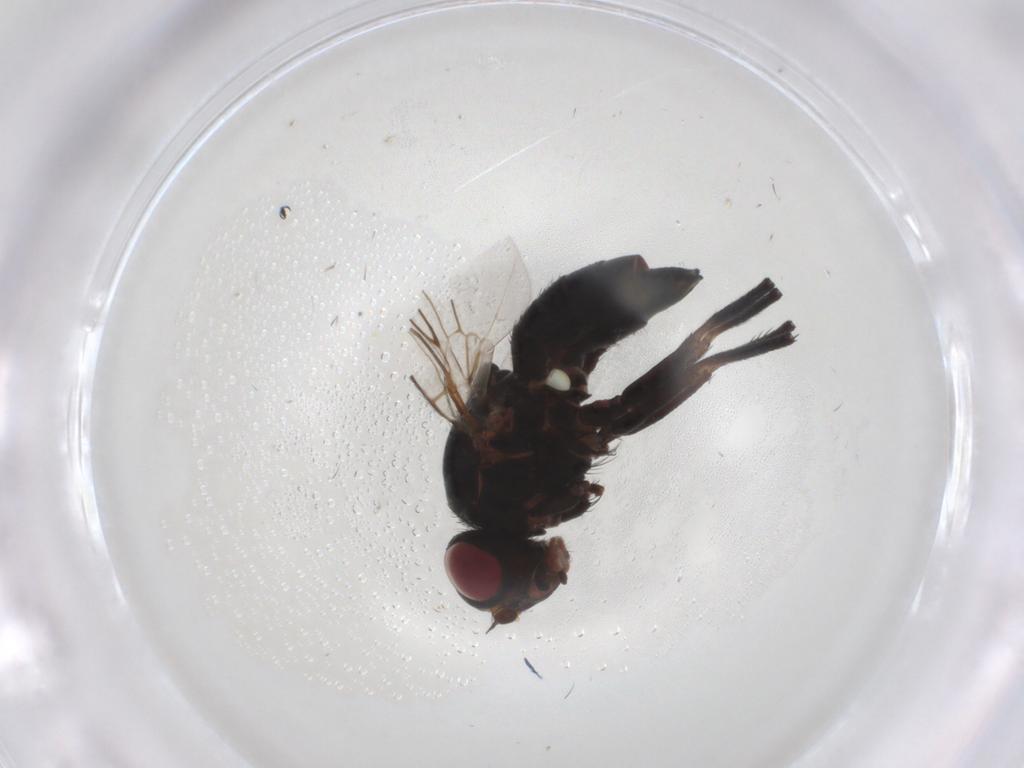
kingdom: Animalia
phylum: Arthropoda
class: Insecta
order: Diptera
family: Agromyzidae
